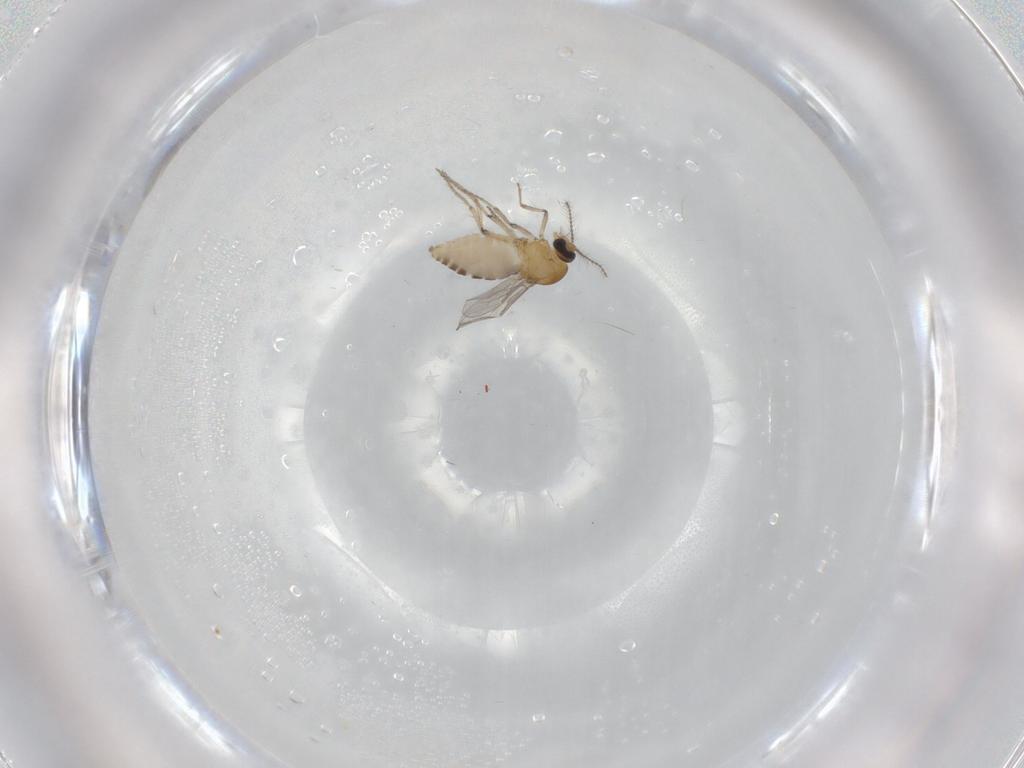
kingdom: Animalia
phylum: Arthropoda
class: Insecta
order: Diptera
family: Ceratopogonidae
